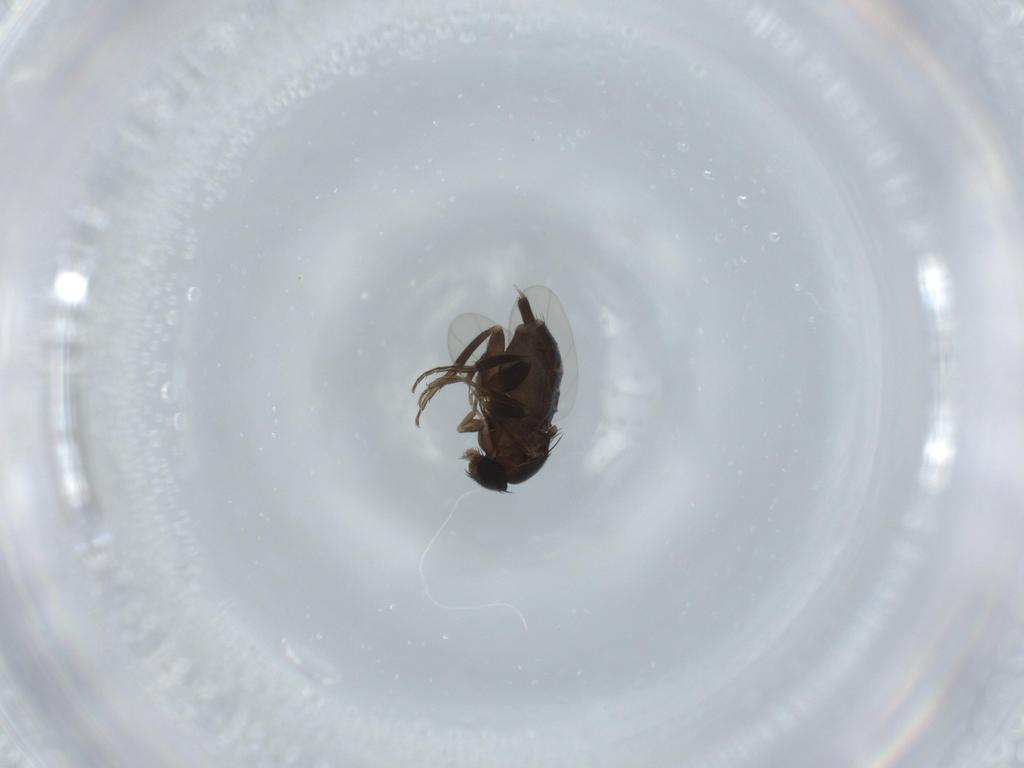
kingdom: Animalia
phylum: Arthropoda
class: Insecta
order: Diptera
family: Phoridae
